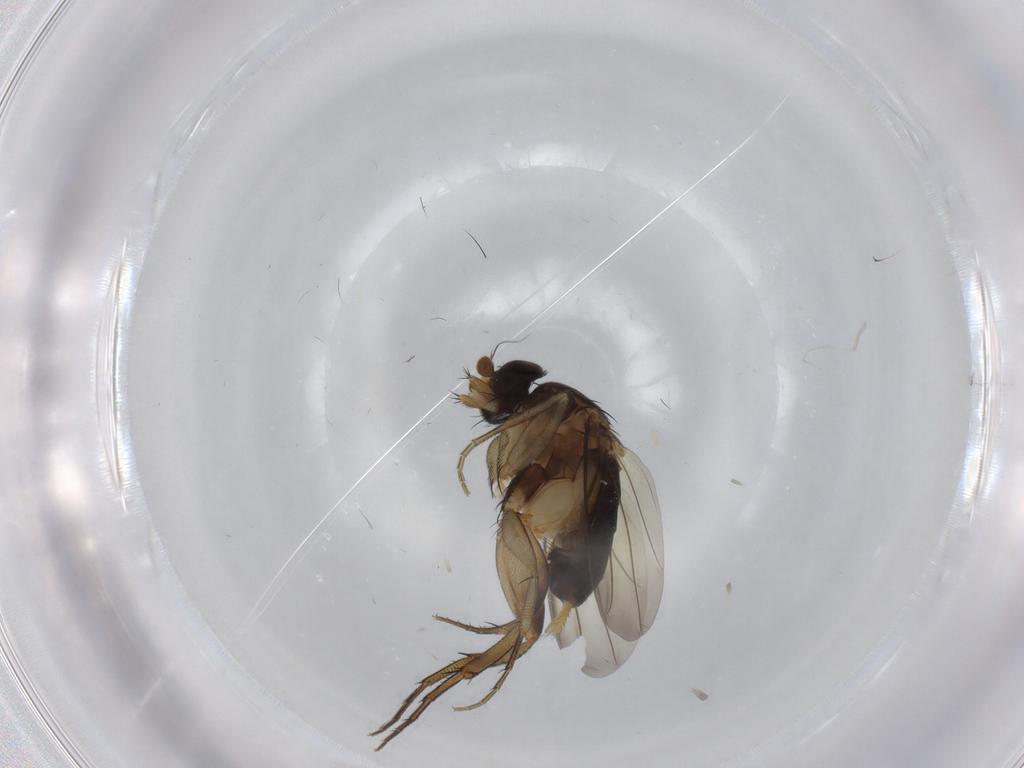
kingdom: Animalia
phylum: Arthropoda
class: Insecta
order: Diptera
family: Phoridae
